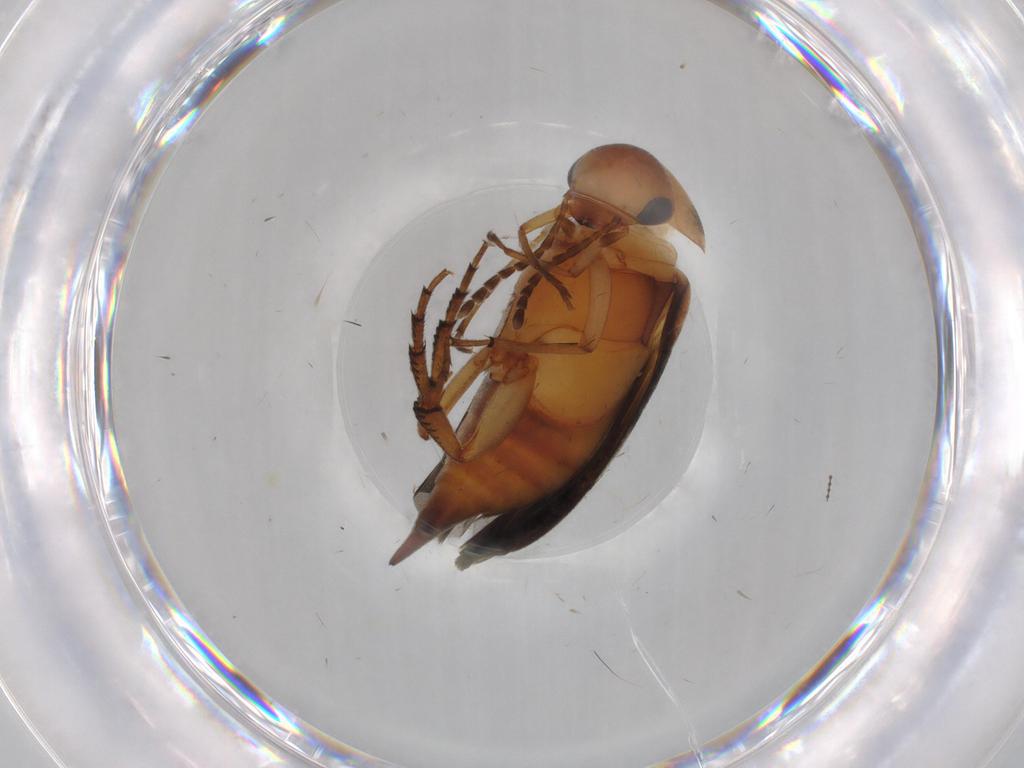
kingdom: Animalia
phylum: Arthropoda
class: Insecta
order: Coleoptera
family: Mordellidae
